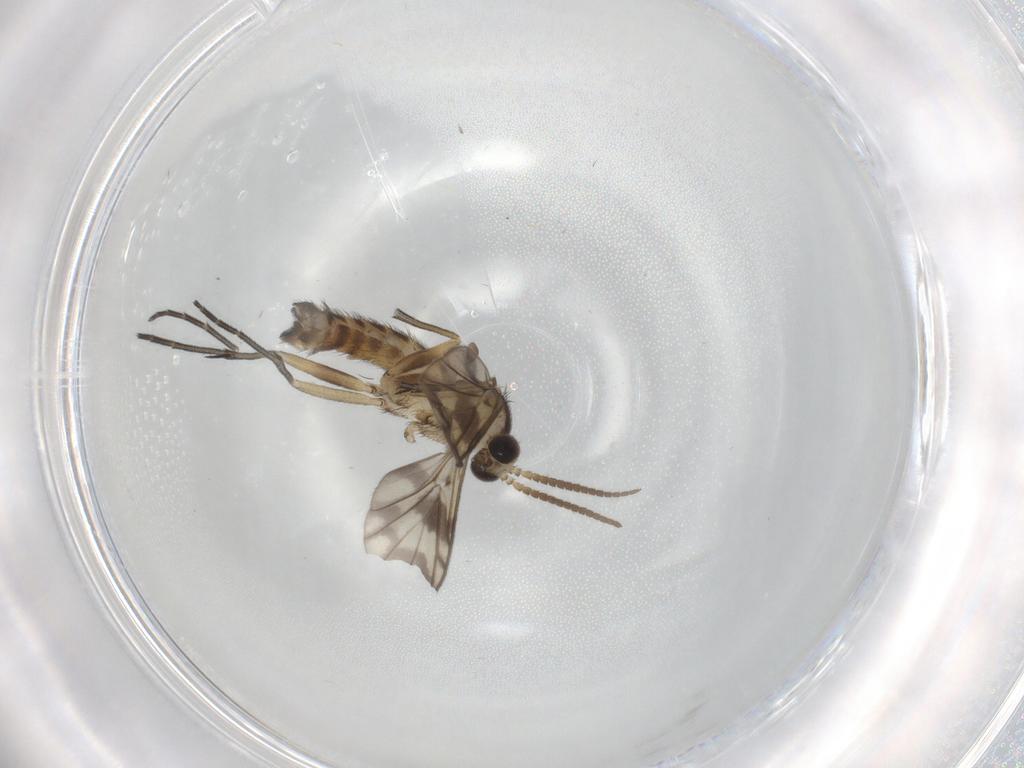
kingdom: Animalia
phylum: Arthropoda
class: Insecta
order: Diptera
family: Keroplatidae
